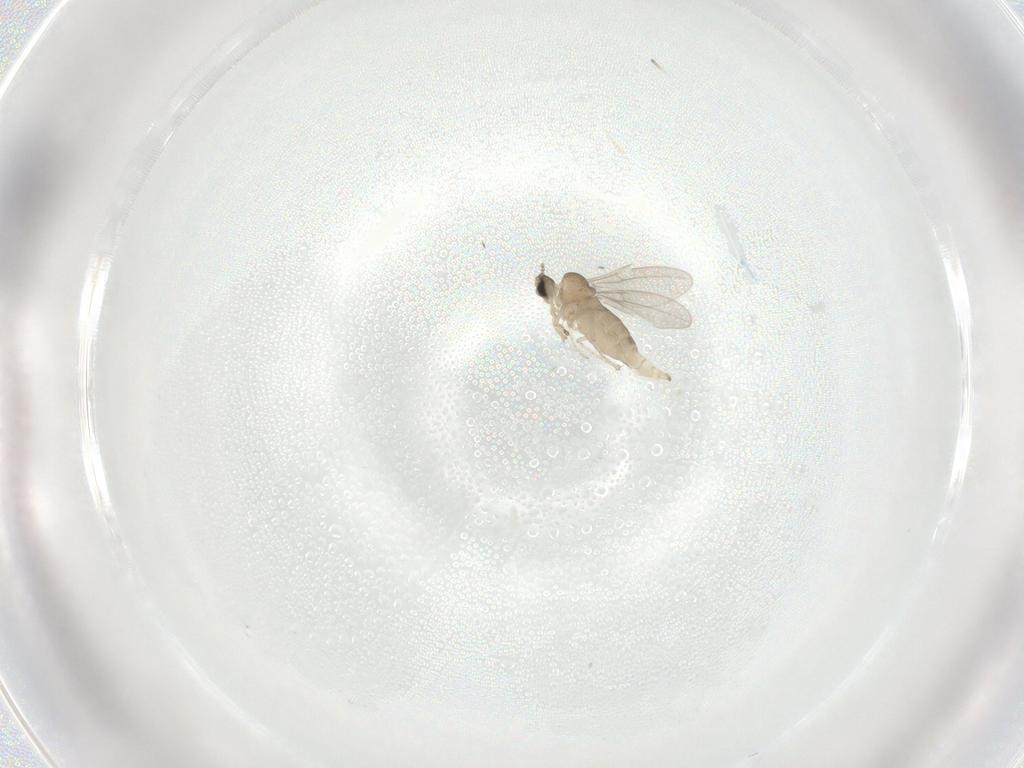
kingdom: Animalia
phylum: Arthropoda
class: Insecta
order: Diptera
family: Cecidomyiidae
